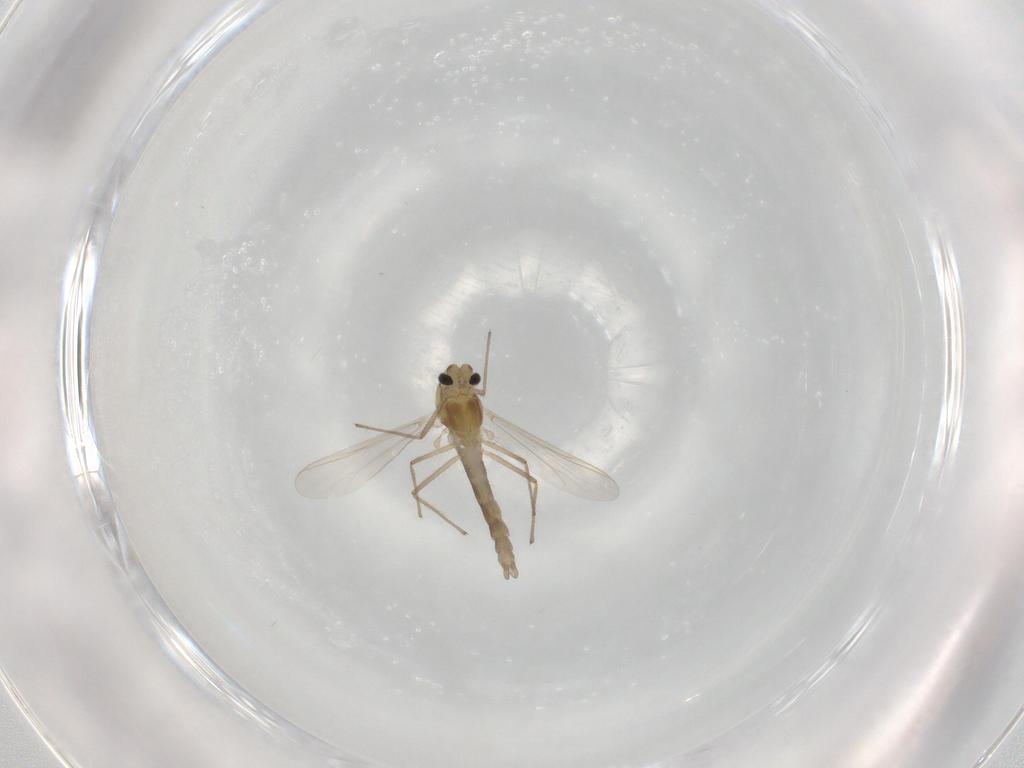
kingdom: Animalia
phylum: Arthropoda
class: Insecta
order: Diptera
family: Chironomidae
